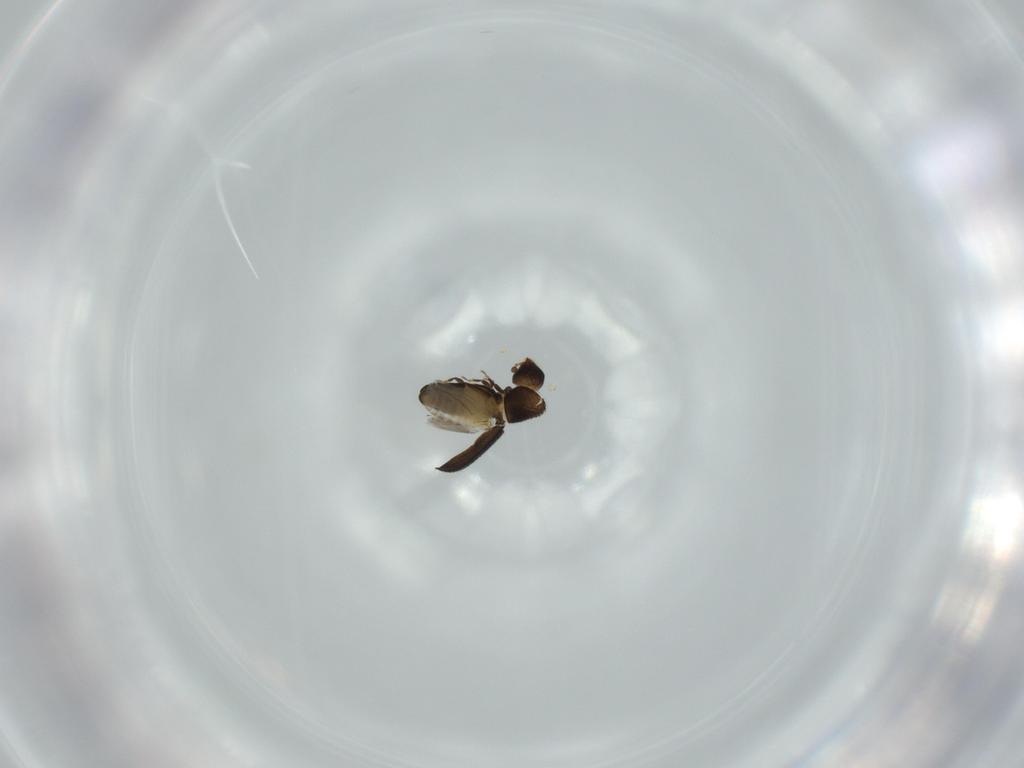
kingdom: Animalia
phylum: Arthropoda
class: Insecta
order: Coleoptera
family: Curculionidae
